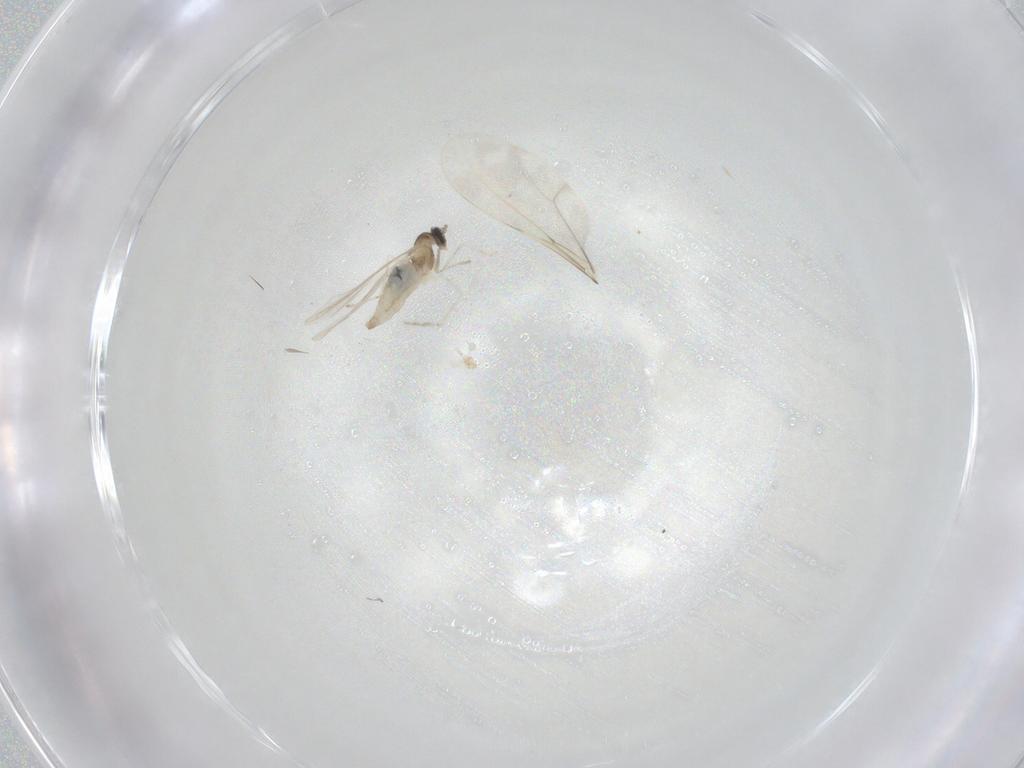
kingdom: Animalia
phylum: Arthropoda
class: Insecta
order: Diptera
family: Cecidomyiidae
